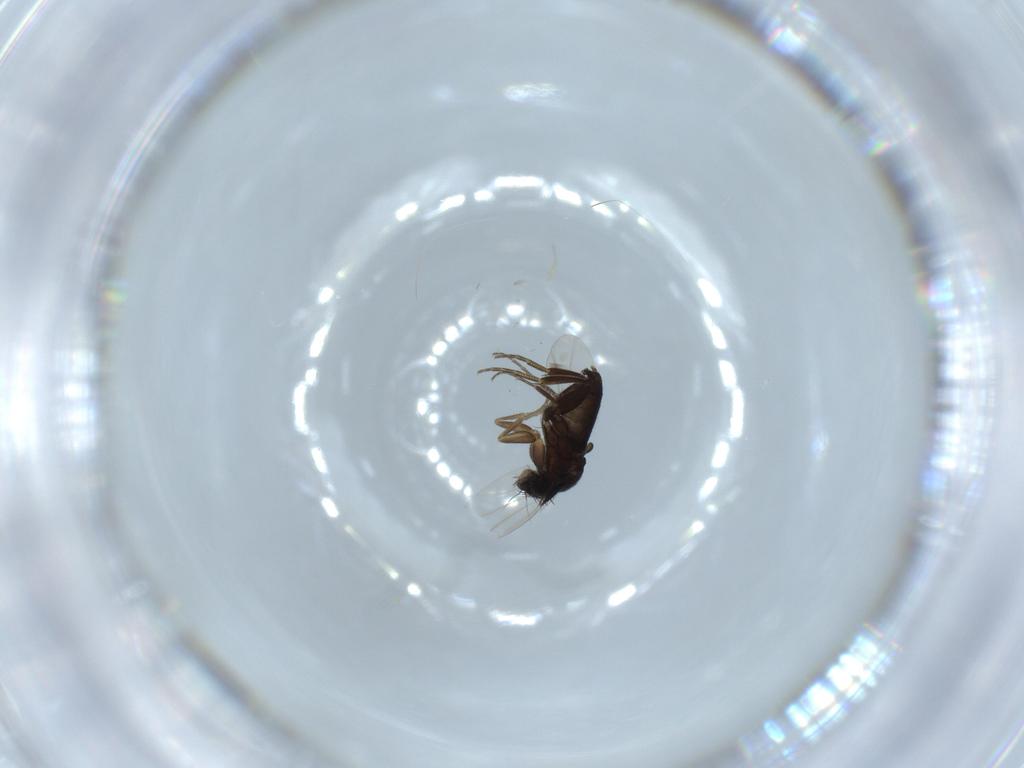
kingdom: Animalia
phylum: Arthropoda
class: Insecta
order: Diptera
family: Phoridae
